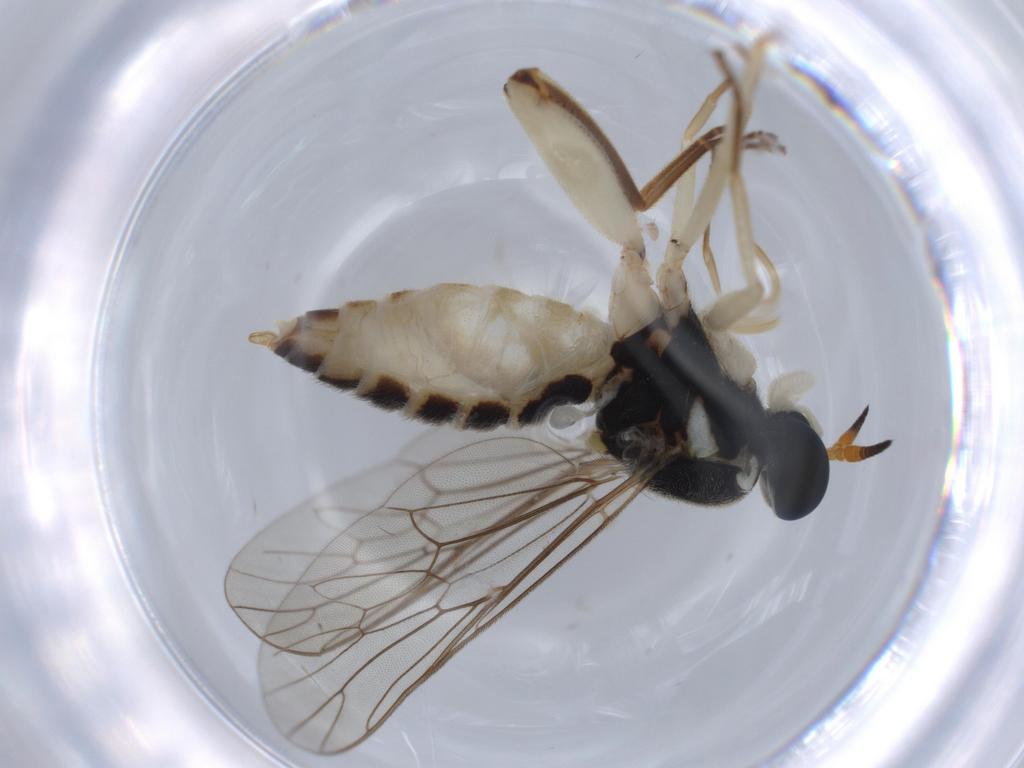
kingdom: Animalia
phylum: Arthropoda
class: Insecta
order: Diptera
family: Xylomyidae
